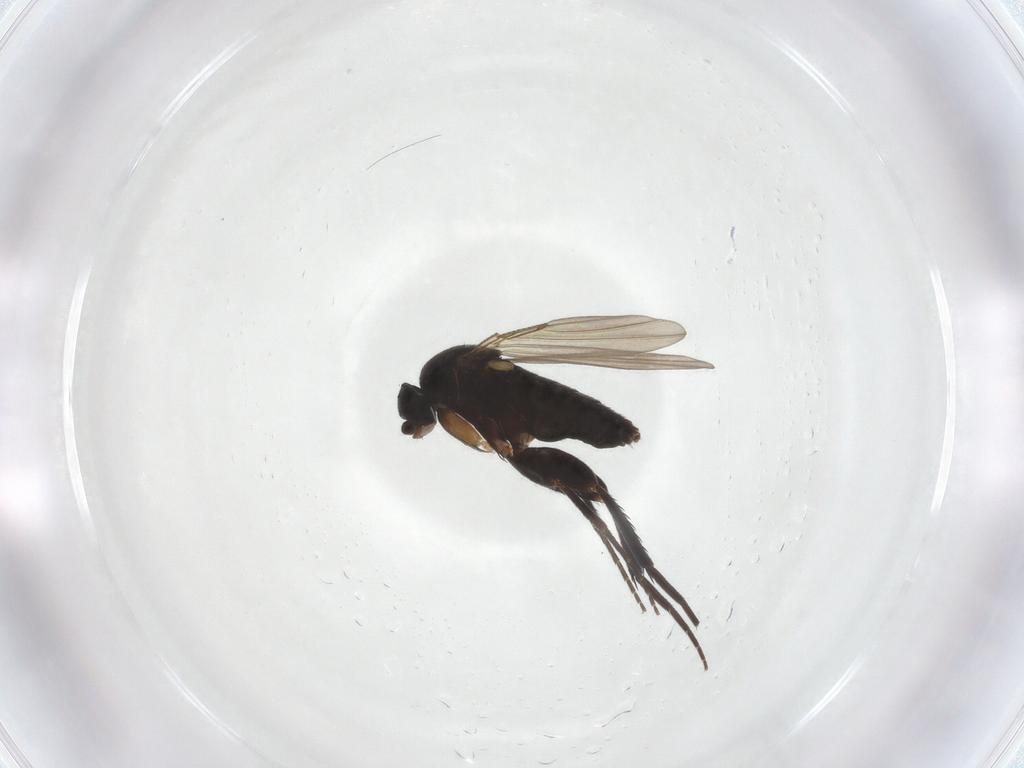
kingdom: Animalia
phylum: Arthropoda
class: Insecta
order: Diptera
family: Phoridae
